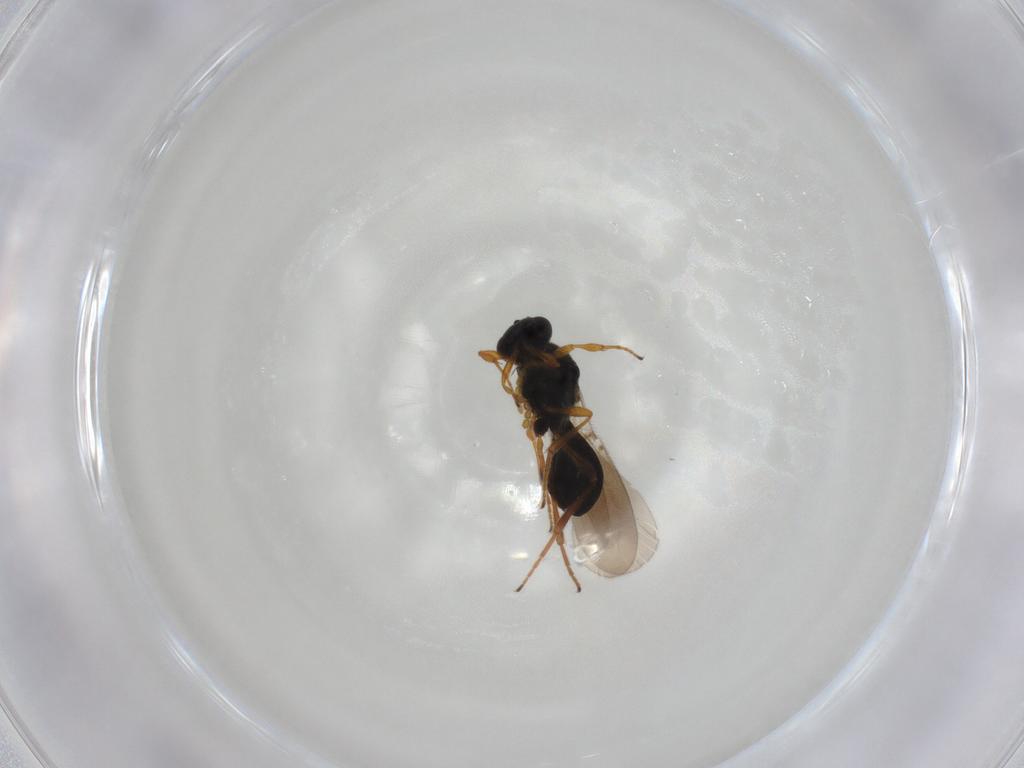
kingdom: Animalia
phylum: Arthropoda
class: Insecta
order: Hymenoptera
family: Platygastridae
